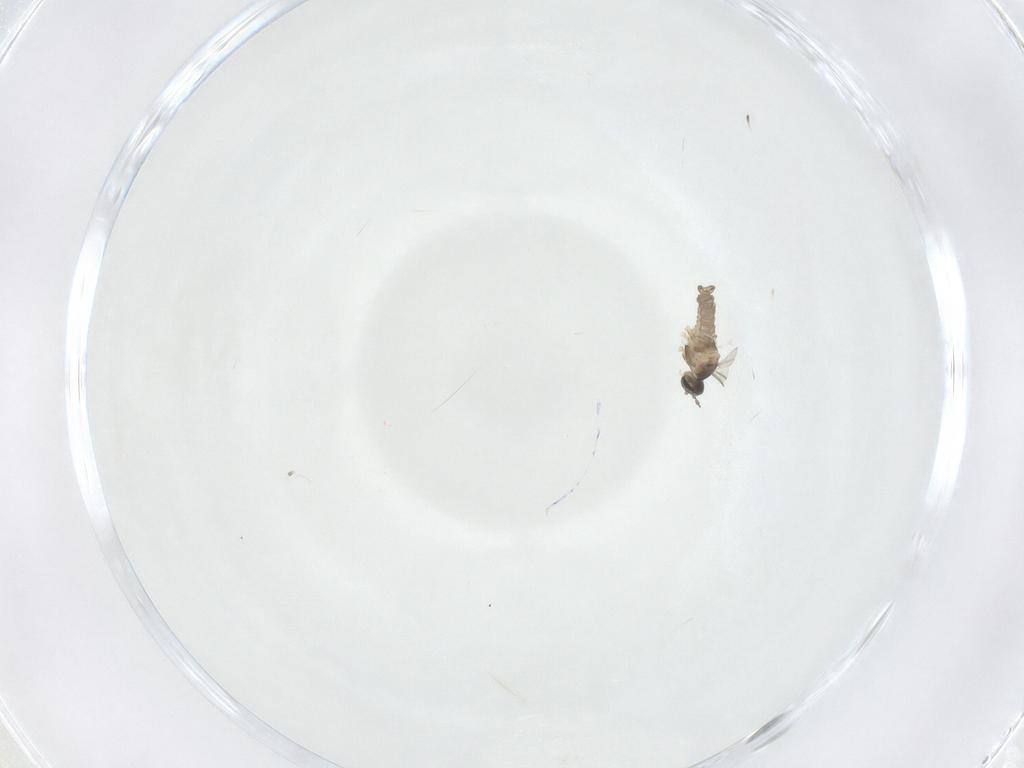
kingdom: Animalia
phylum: Arthropoda
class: Insecta
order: Diptera
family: Cecidomyiidae
